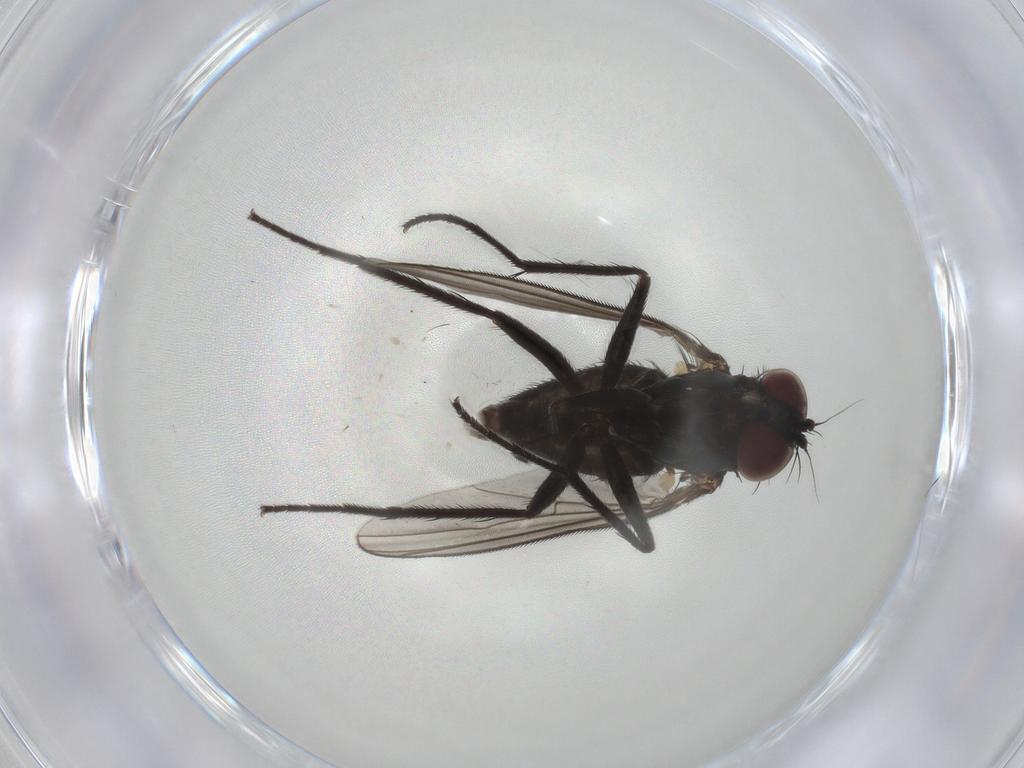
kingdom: Animalia
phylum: Arthropoda
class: Insecta
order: Diptera
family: Dolichopodidae
